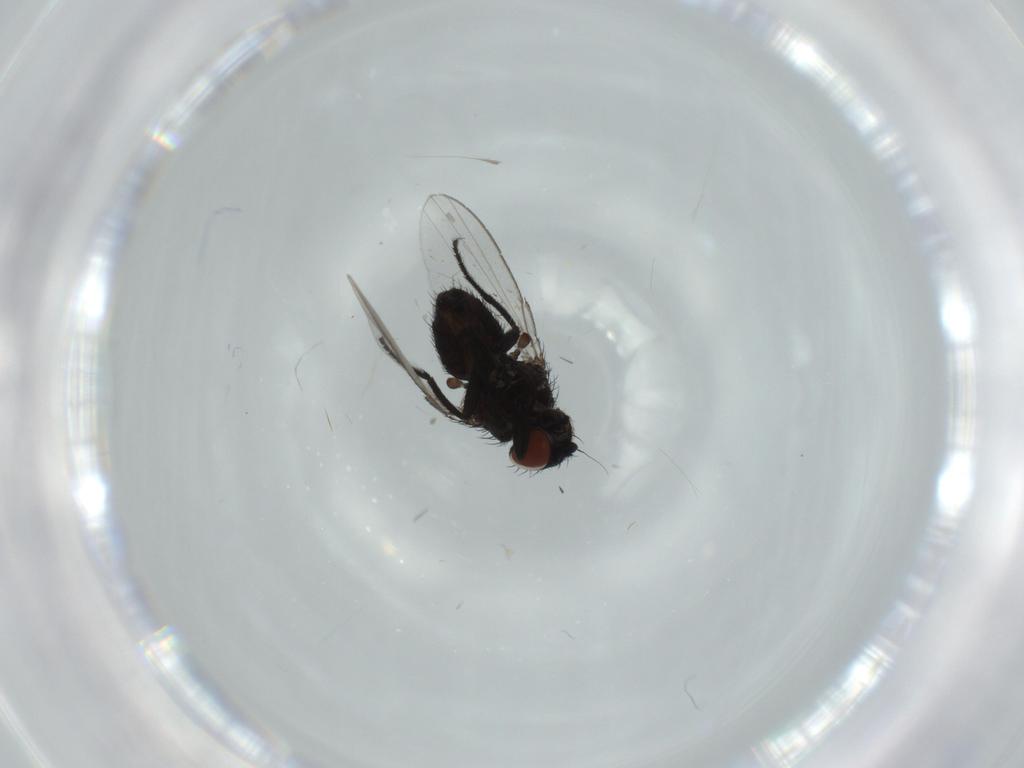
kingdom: Animalia
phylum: Arthropoda
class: Insecta
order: Diptera
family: Milichiidae
